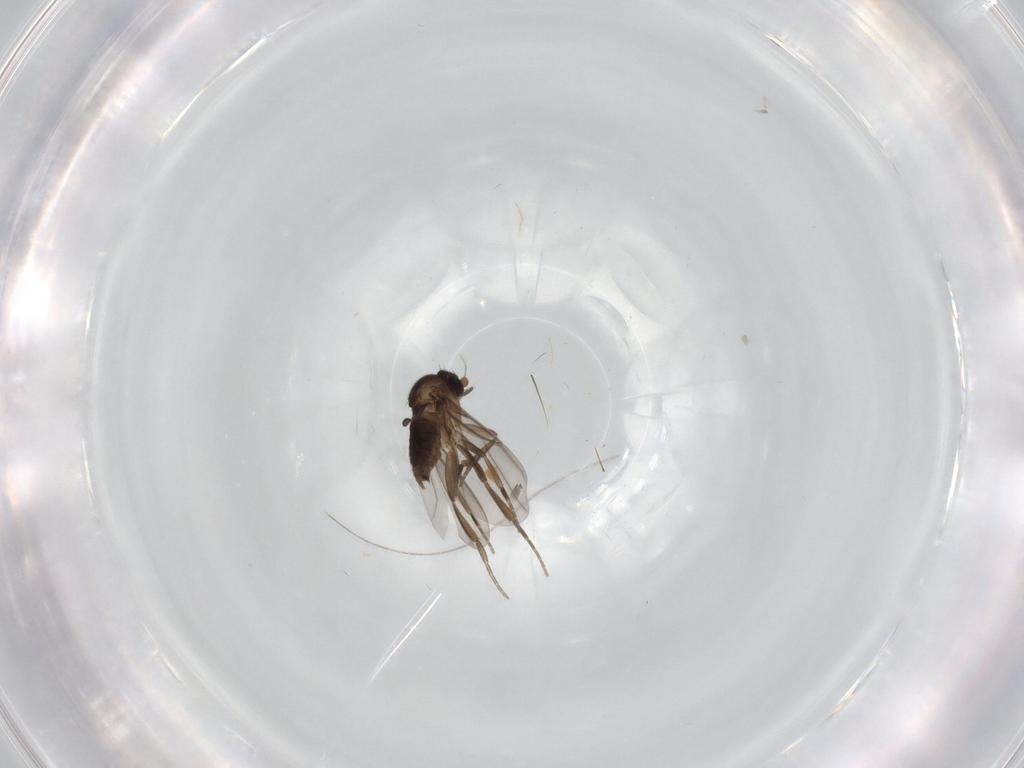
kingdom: Animalia
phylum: Arthropoda
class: Insecta
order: Diptera
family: Phoridae
